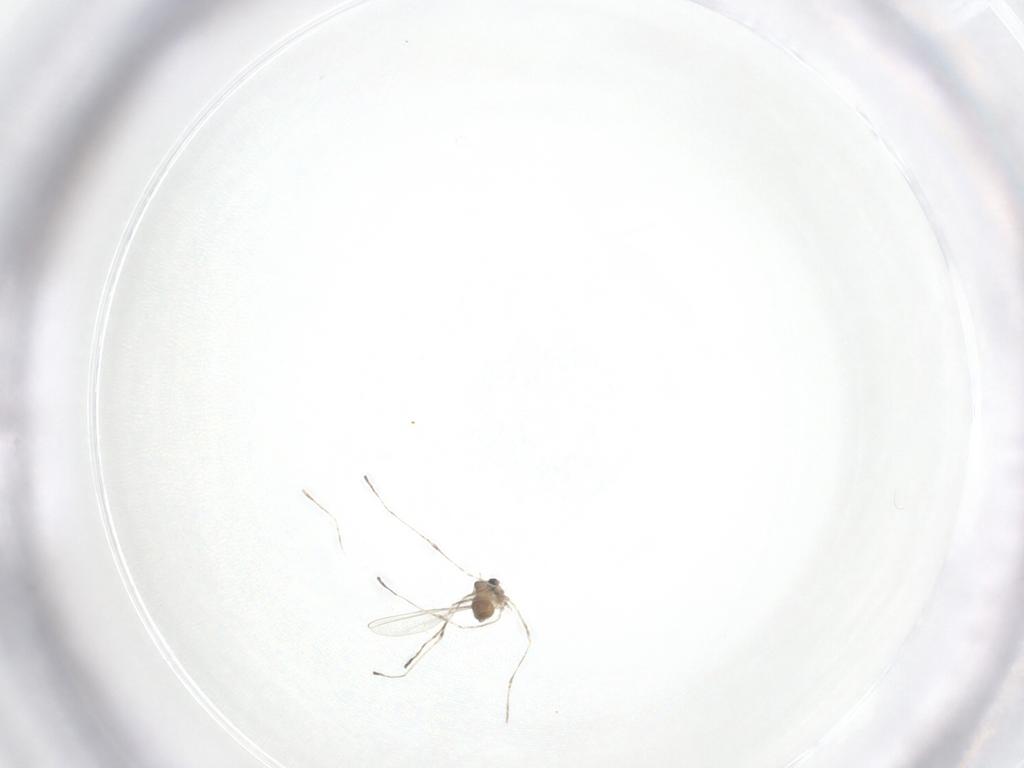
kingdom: Animalia
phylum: Arthropoda
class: Insecta
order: Diptera
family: Cecidomyiidae
